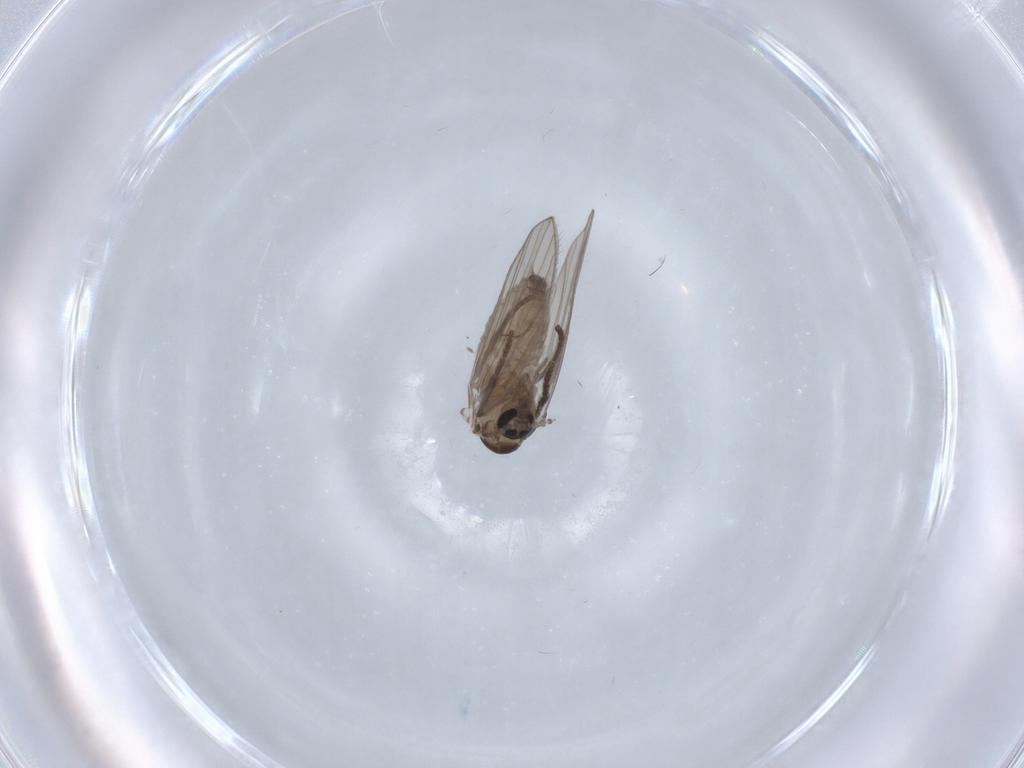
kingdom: Animalia
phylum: Arthropoda
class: Insecta
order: Diptera
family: Psychodidae
